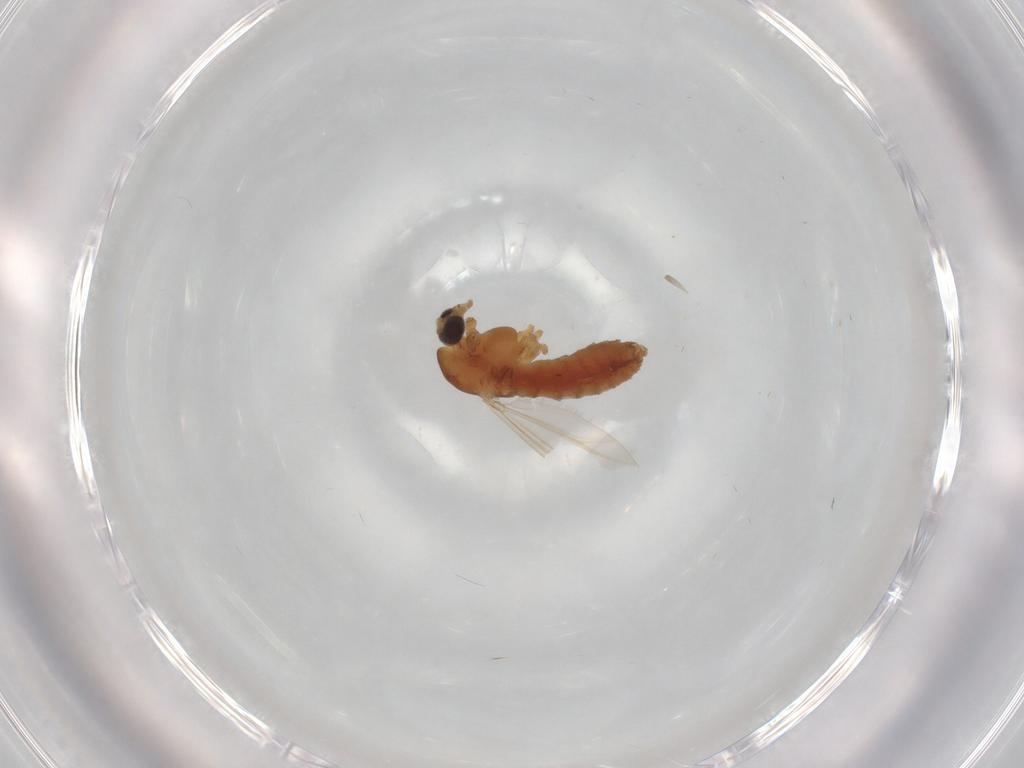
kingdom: Animalia
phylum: Arthropoda
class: Insecta
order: Diptera
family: Chironomidae
